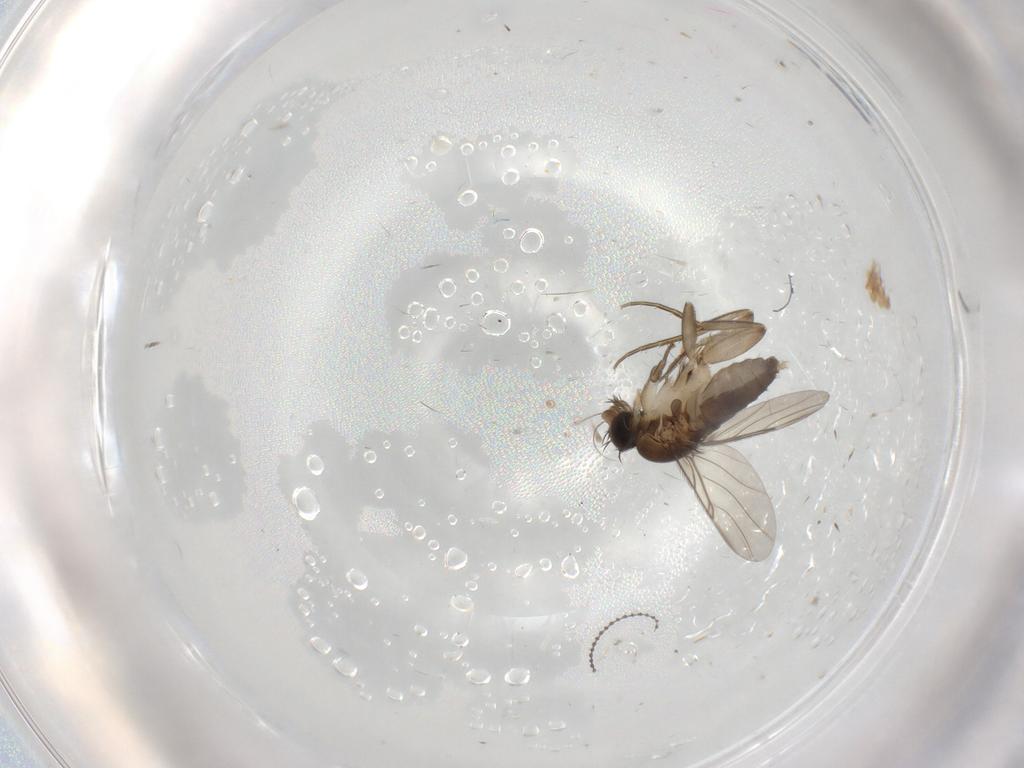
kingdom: Animalia
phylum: Arthropoda
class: Insecta
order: Diptera
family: Phoridae
